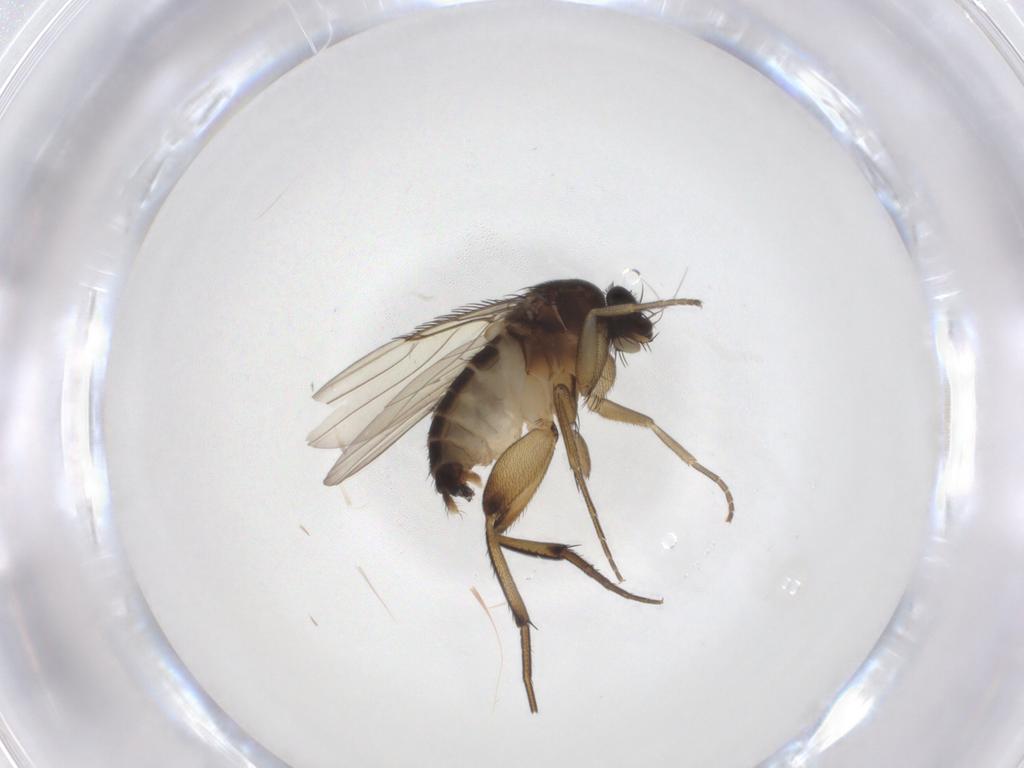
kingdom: Animalia
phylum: Arthropoda
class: Insecta
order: Diptera
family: Phoridae
